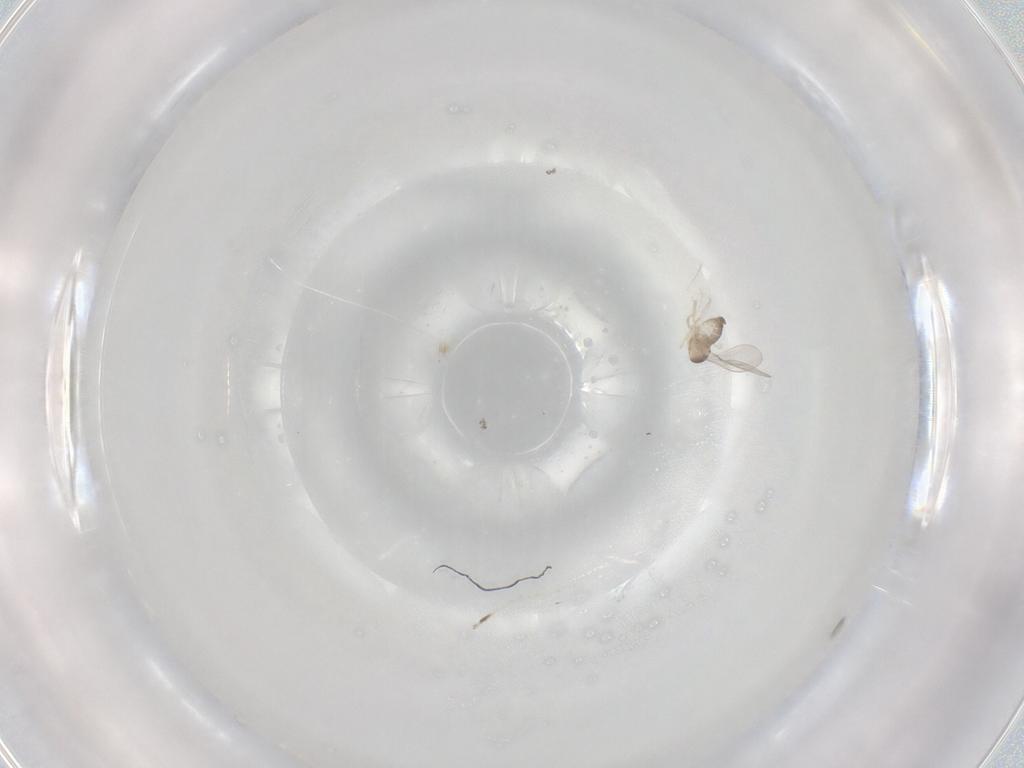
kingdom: Animalia
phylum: Arthropoda
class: Insecta
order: Diptera
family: Cecidomyiidae
